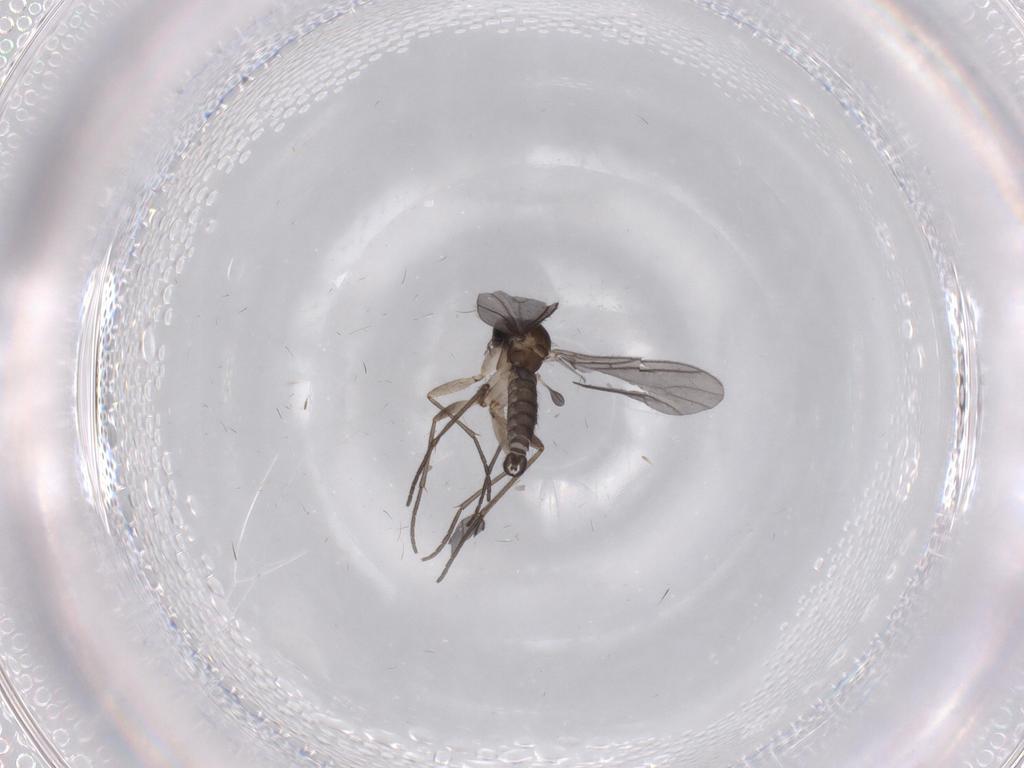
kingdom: Animalia
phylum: Arthropoda
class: Insecta
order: Diptera
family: Sciaridae
